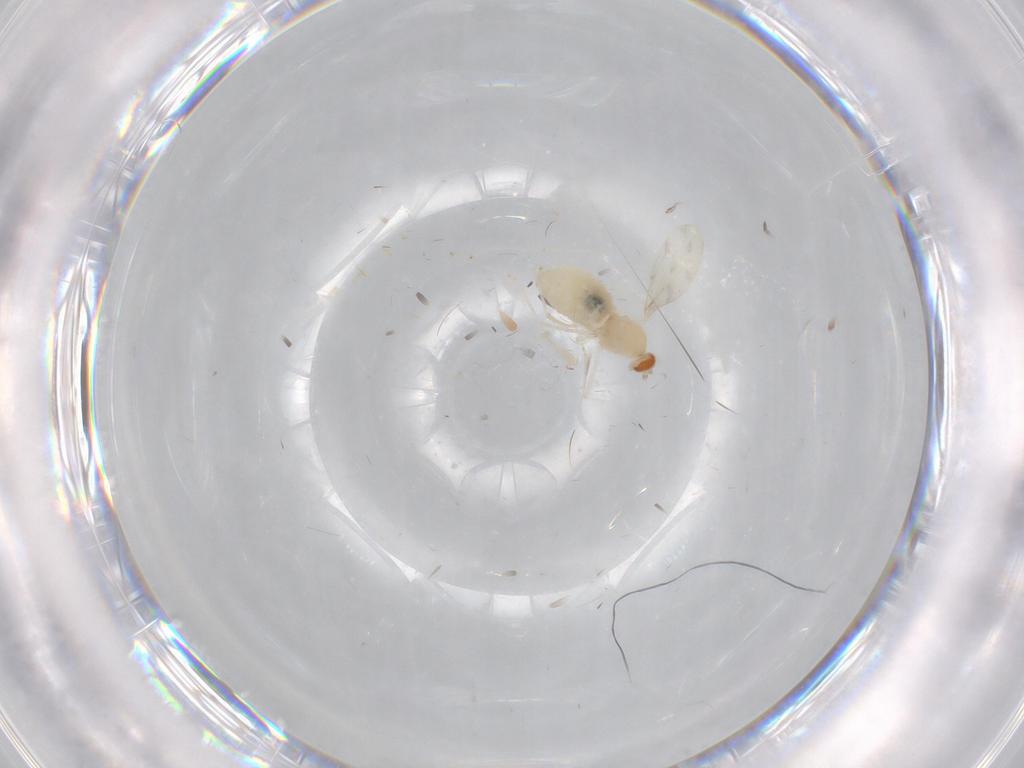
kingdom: Animalia
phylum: Arthropoda
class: Insecta
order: Diptera
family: Cecidomyiidae
